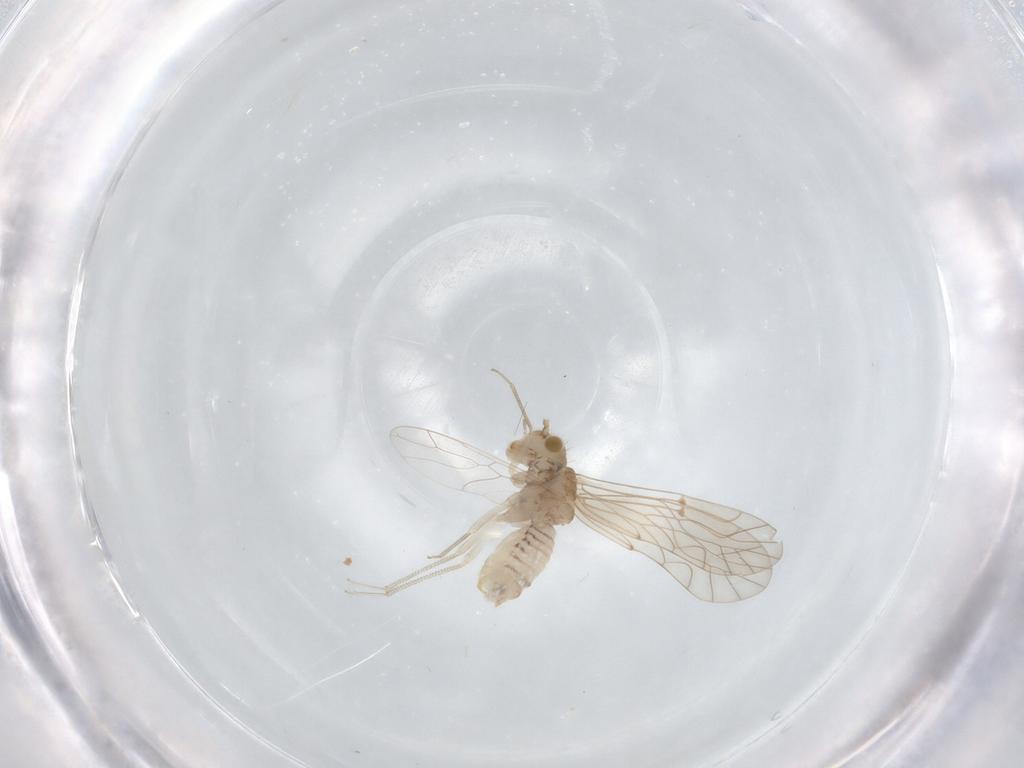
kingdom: Animalia
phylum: Arthropoda
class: Insecta
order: Psocodea
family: Lachesillidae
